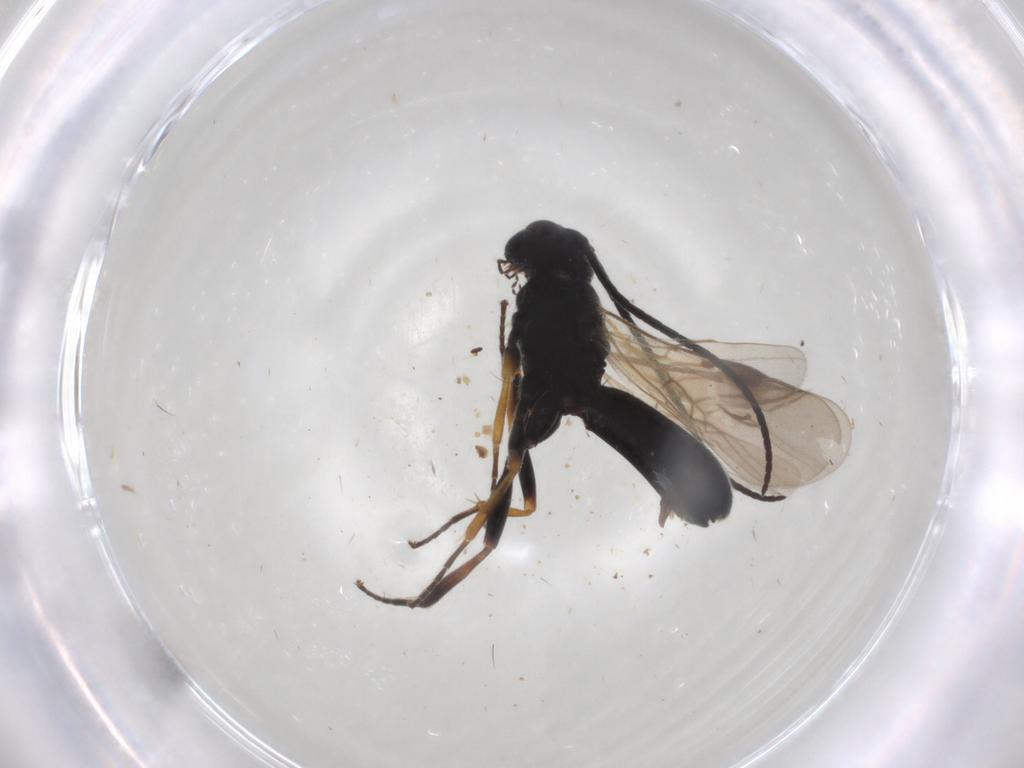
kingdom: Animalia
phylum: Arthropoda
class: Insecta
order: Hymenoptera
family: Braconidae
